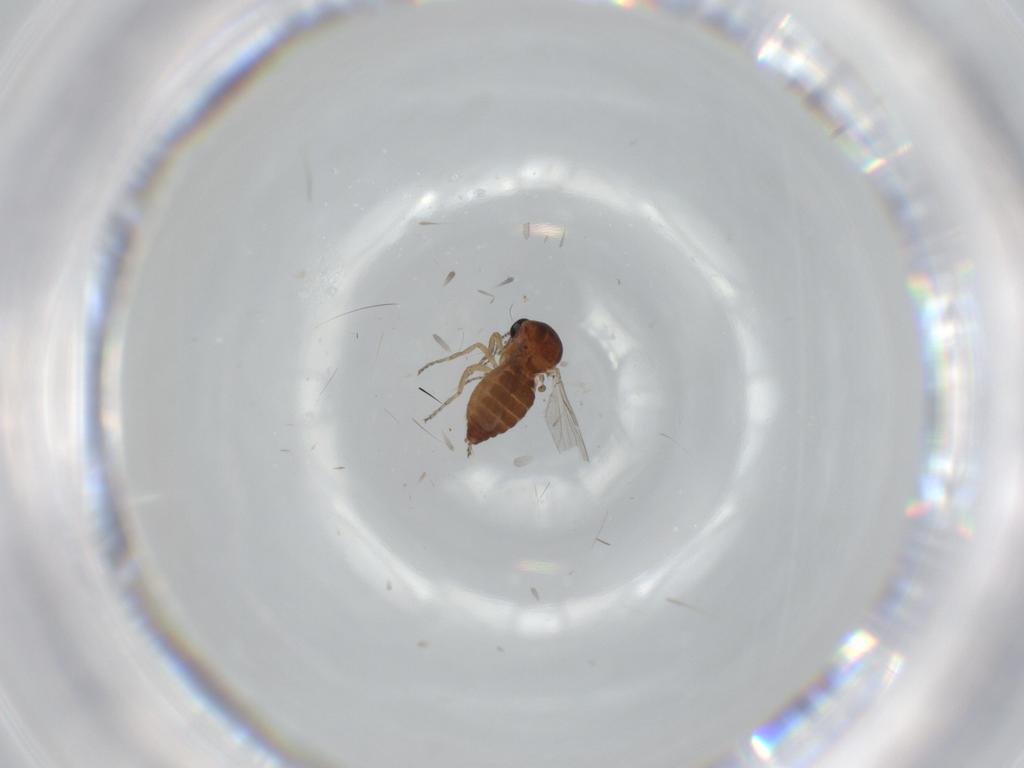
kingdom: Animalia
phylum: Arthropoda
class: Insecta
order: Diptera
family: Ceratopogonidae
